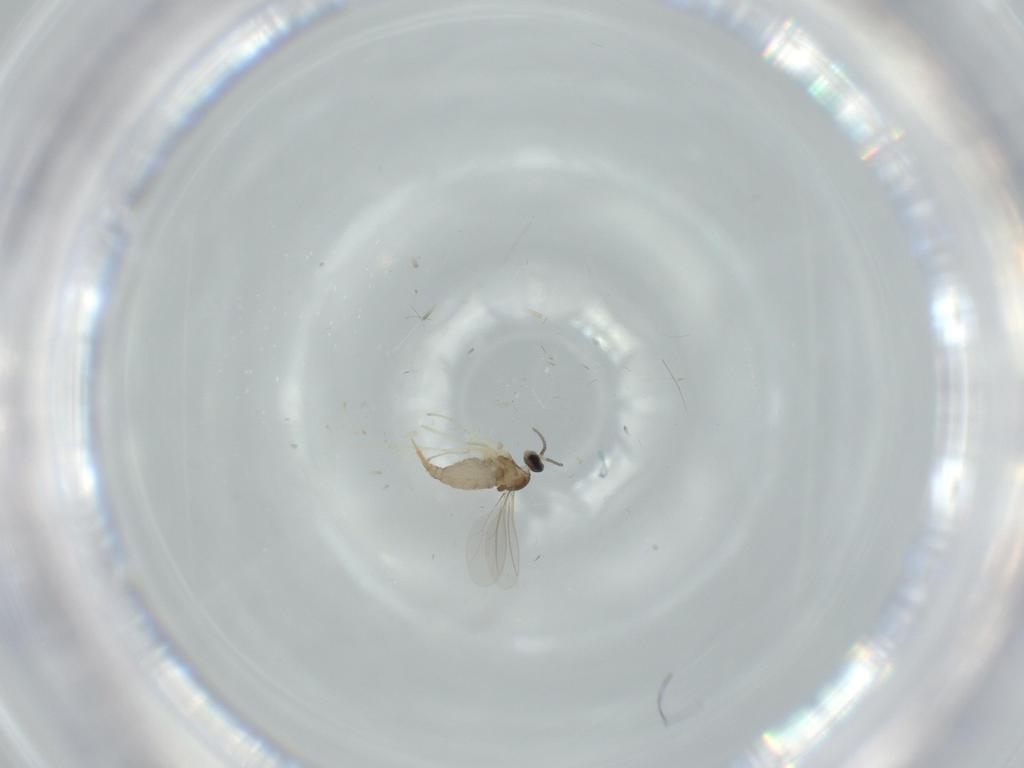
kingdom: Animalia
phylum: Arthropoda
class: Insecta
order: Diptera
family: Cecidomyiidae
